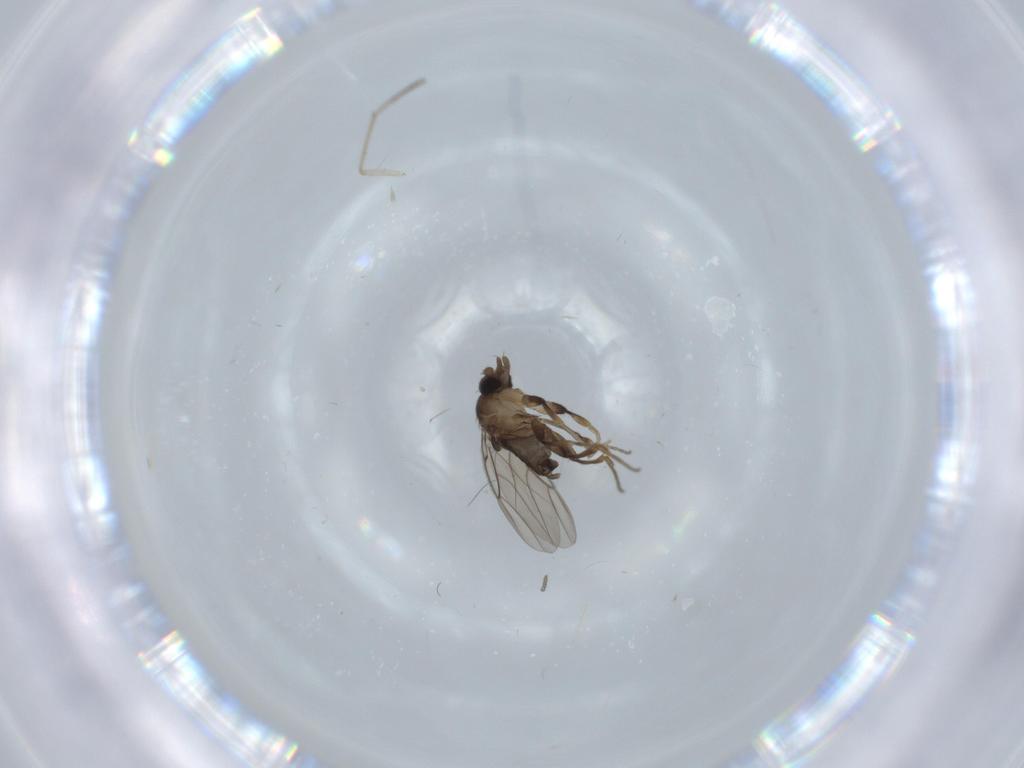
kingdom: Animalia
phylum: Arthropoda
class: Insecta
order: Diptera
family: Phoridae
